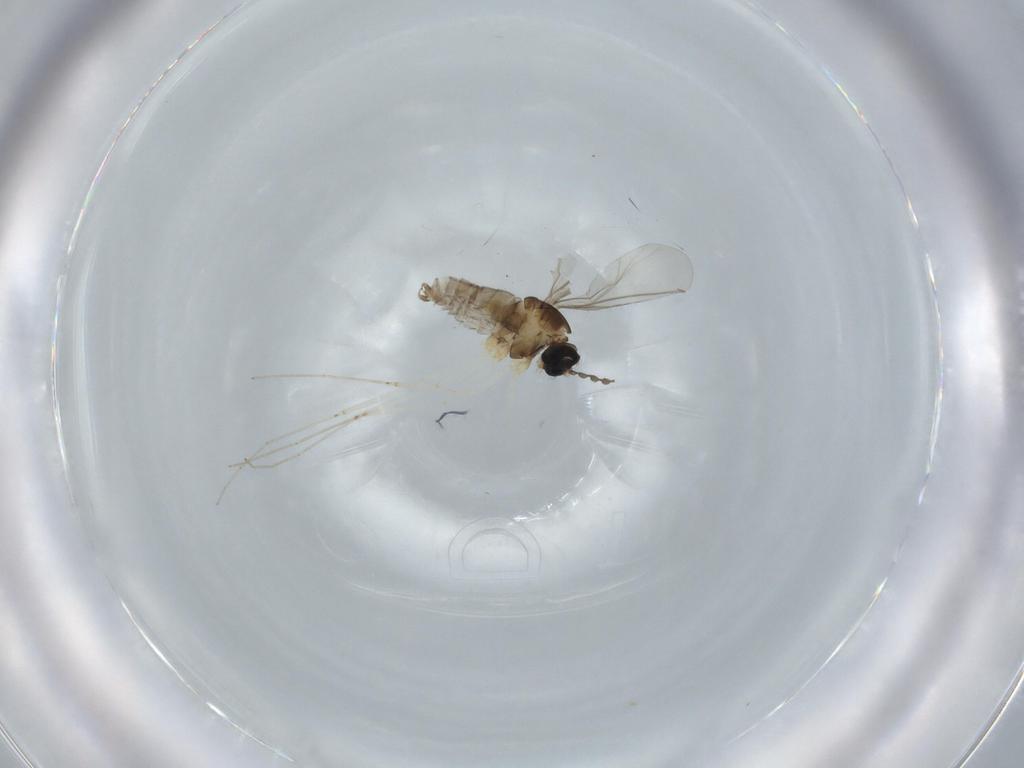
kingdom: Animalia
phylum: Arthropoda
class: Insecta
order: Diptera
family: Cecidomyiidae
